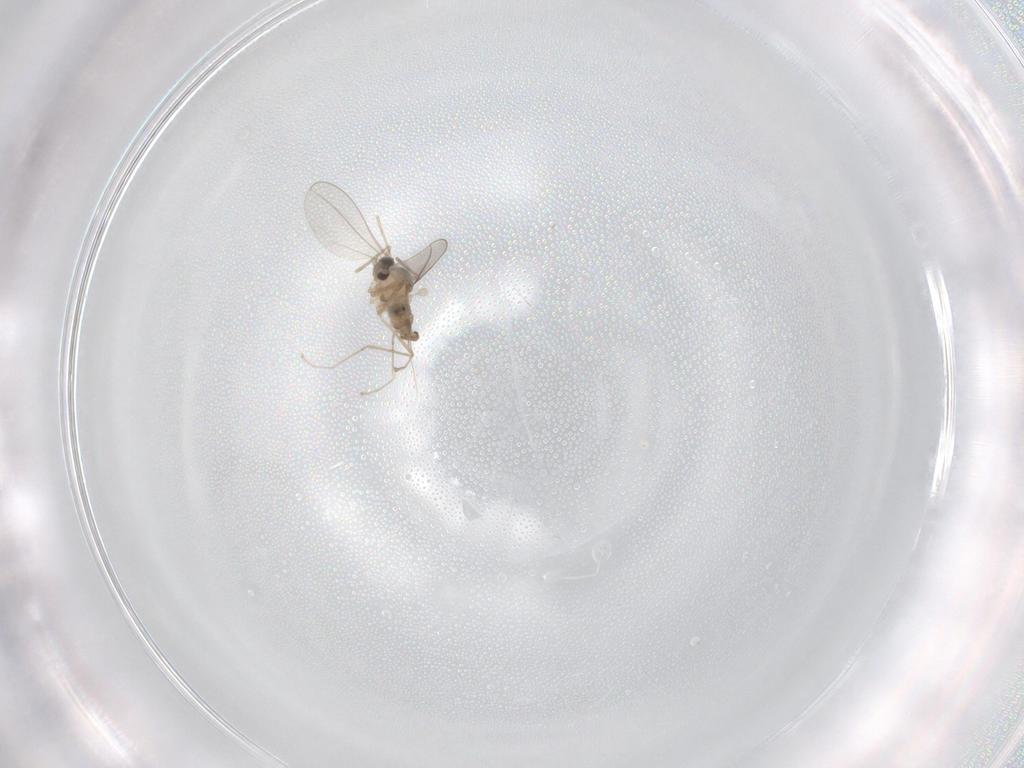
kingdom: Animalia
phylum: Arthropoda
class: Insecta
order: Diptera
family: Cecidomyiidae
